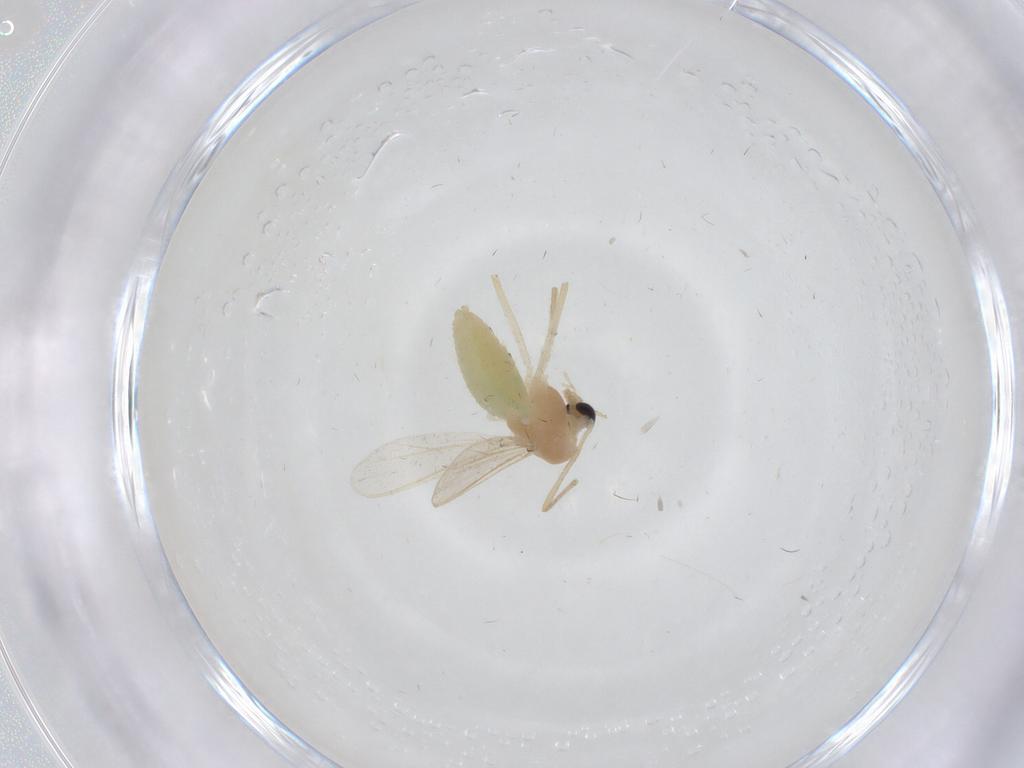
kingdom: Animalia
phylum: Arthropoda
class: Insecta
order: Diptera
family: Chironomidae
